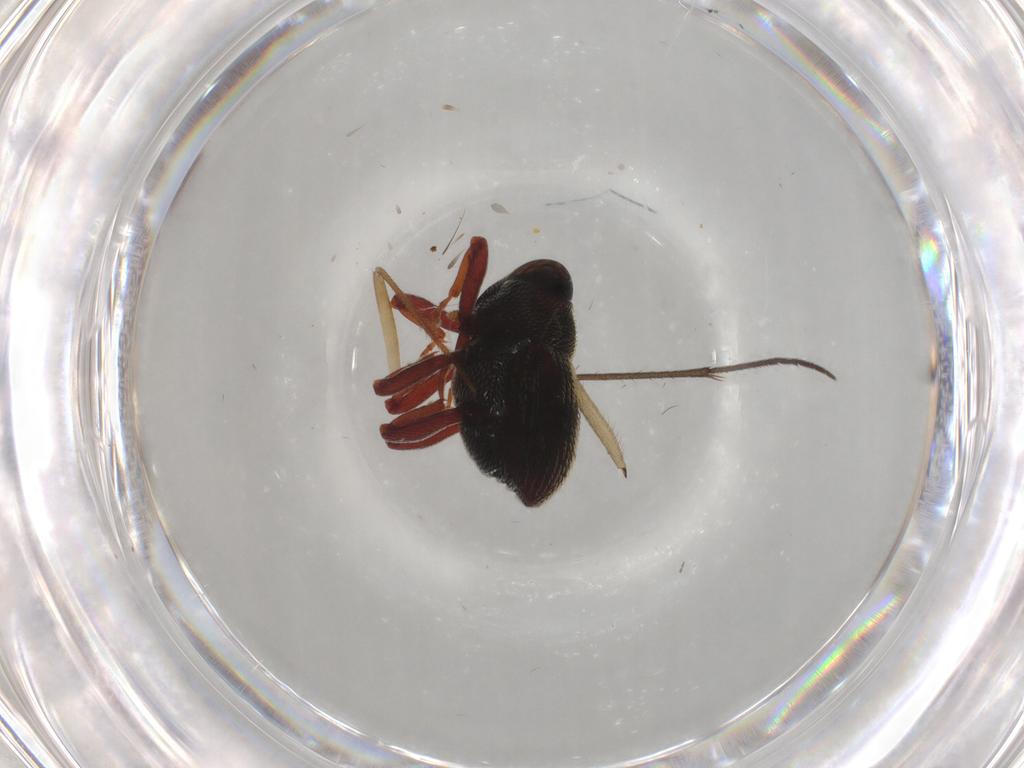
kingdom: Animalia
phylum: Arthropoda
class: Insecta
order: Coleoptera
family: Curculionidae
